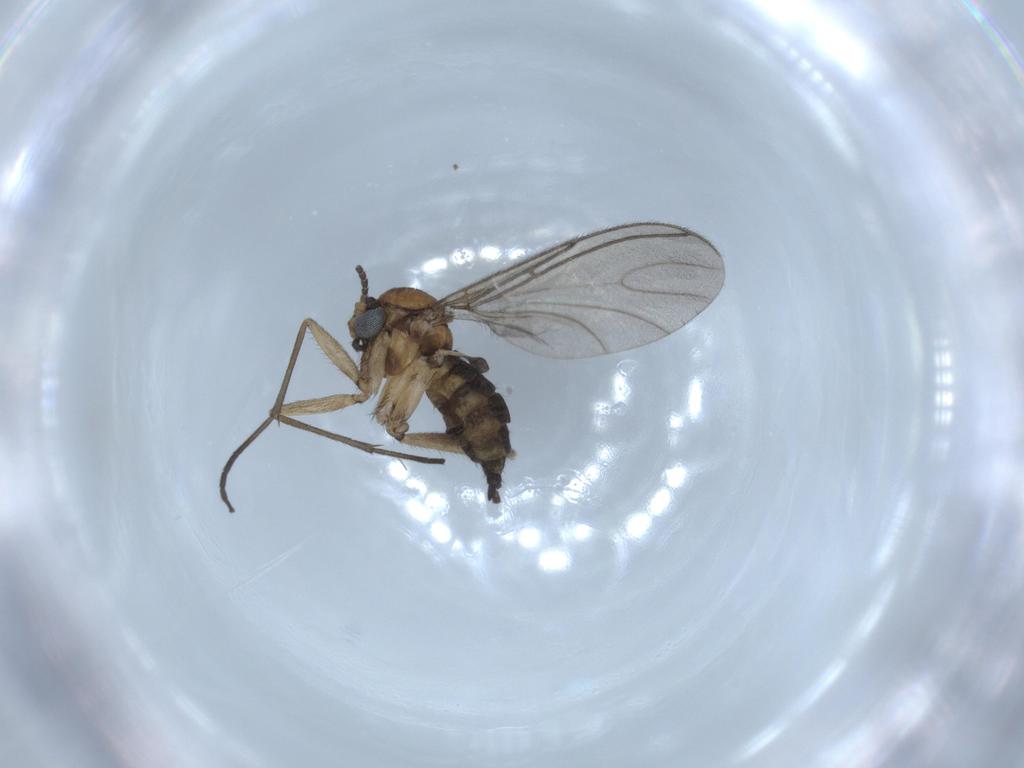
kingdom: Animalia
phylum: Arthropoda
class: Insecta
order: Diptera
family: Sciaridae
